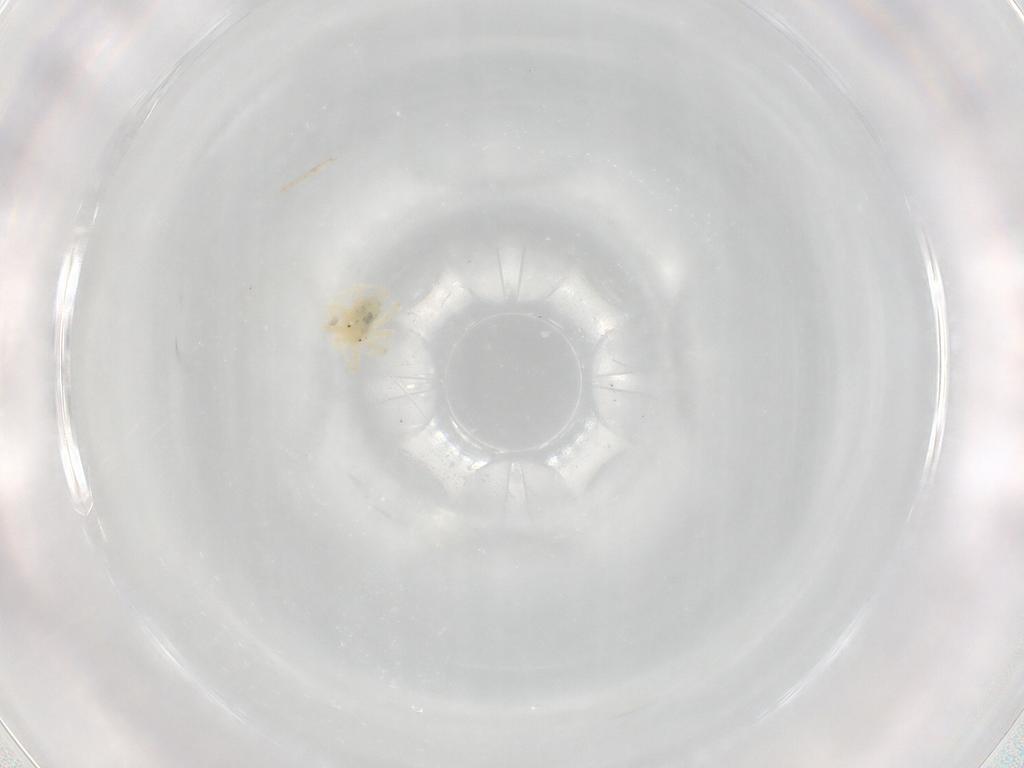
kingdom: Animalia
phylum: Arthropoda
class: Arachnida
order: Trombidiformes
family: Anystidae
